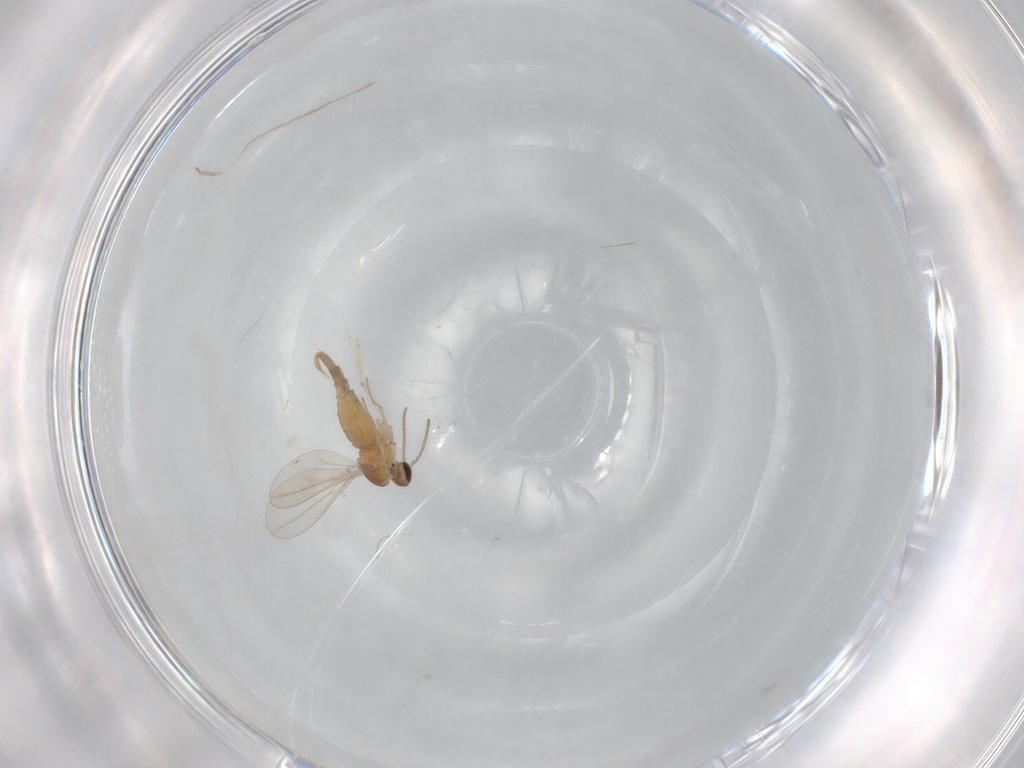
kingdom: Animalia
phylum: Arthropoda
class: Insecta
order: Diptera
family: Cecidomyiidae
